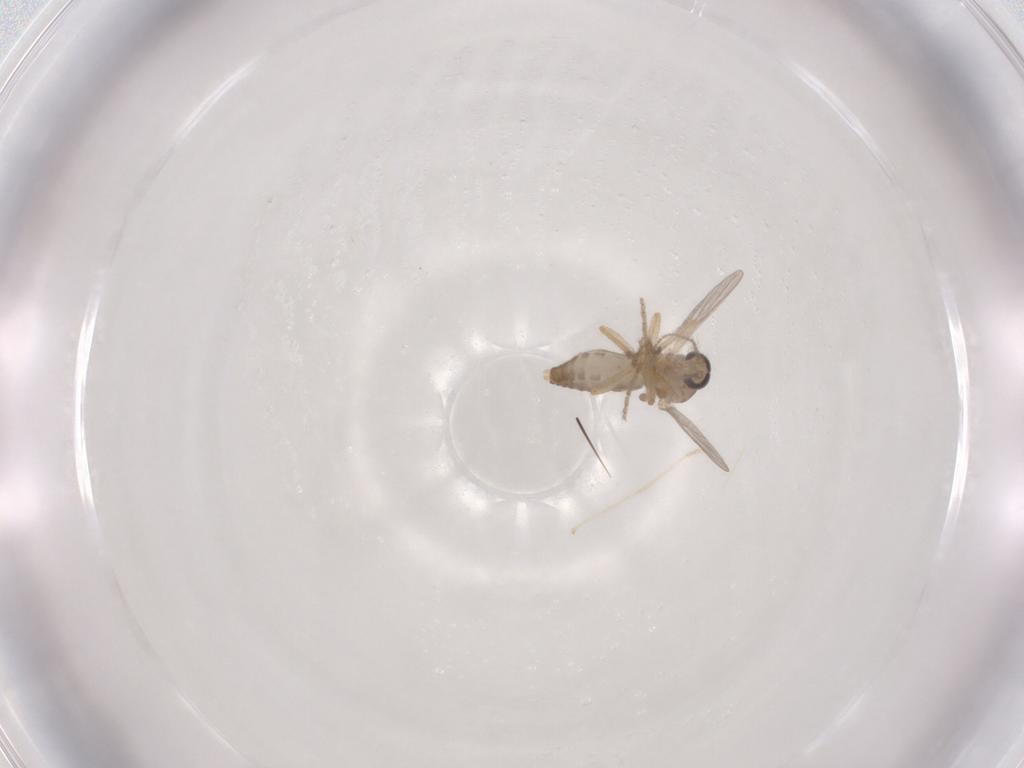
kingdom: Animalia
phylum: Arthropoda
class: Insecta
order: Diptera
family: Ceratopogonidae
